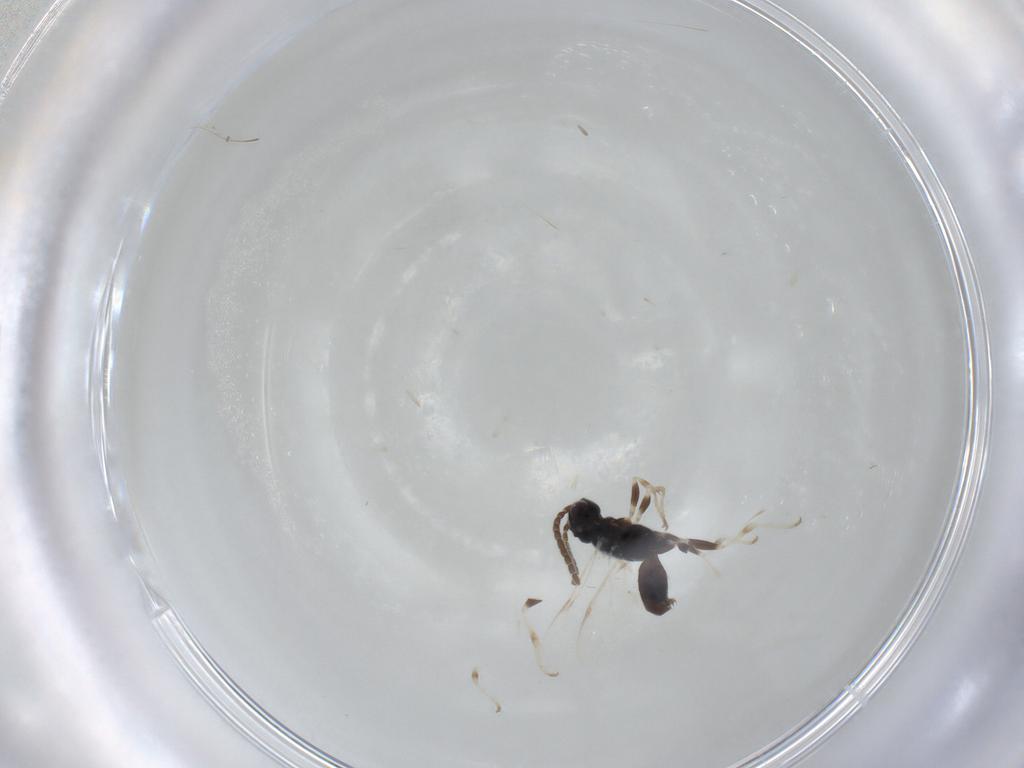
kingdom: Animalia
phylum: Arthropoda
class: Insecta
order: Hymenoptera
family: Dryinidae
